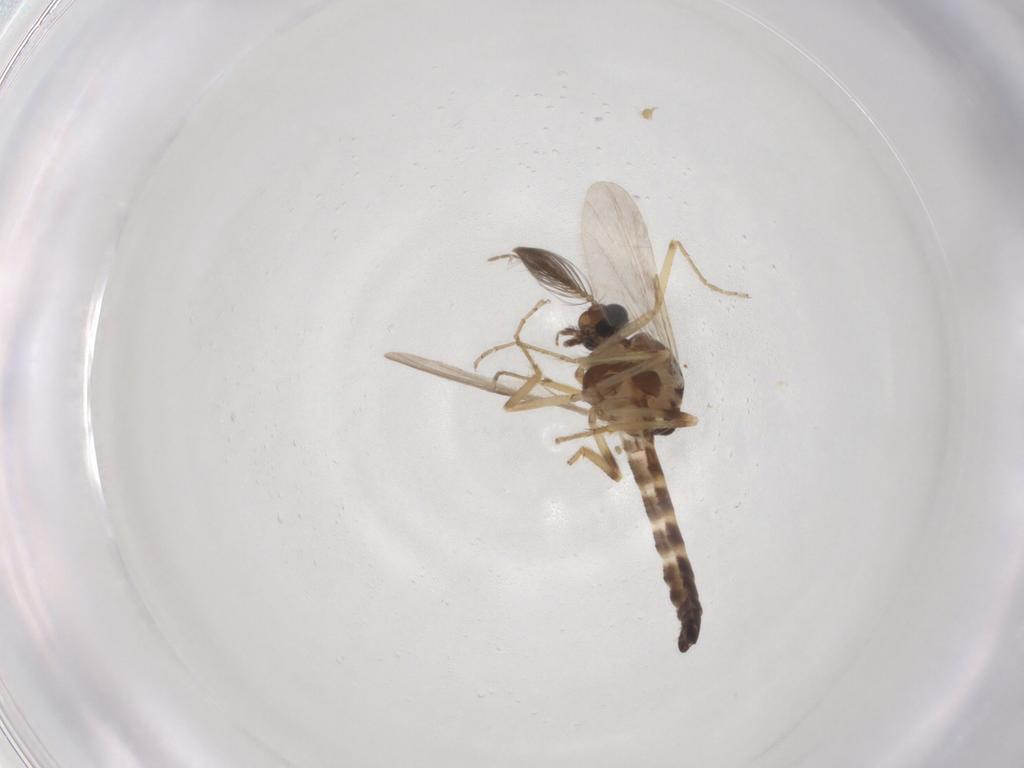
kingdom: Animalia
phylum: Arthropoda
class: Insecta
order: Diptera
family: Ceratopogonidae
